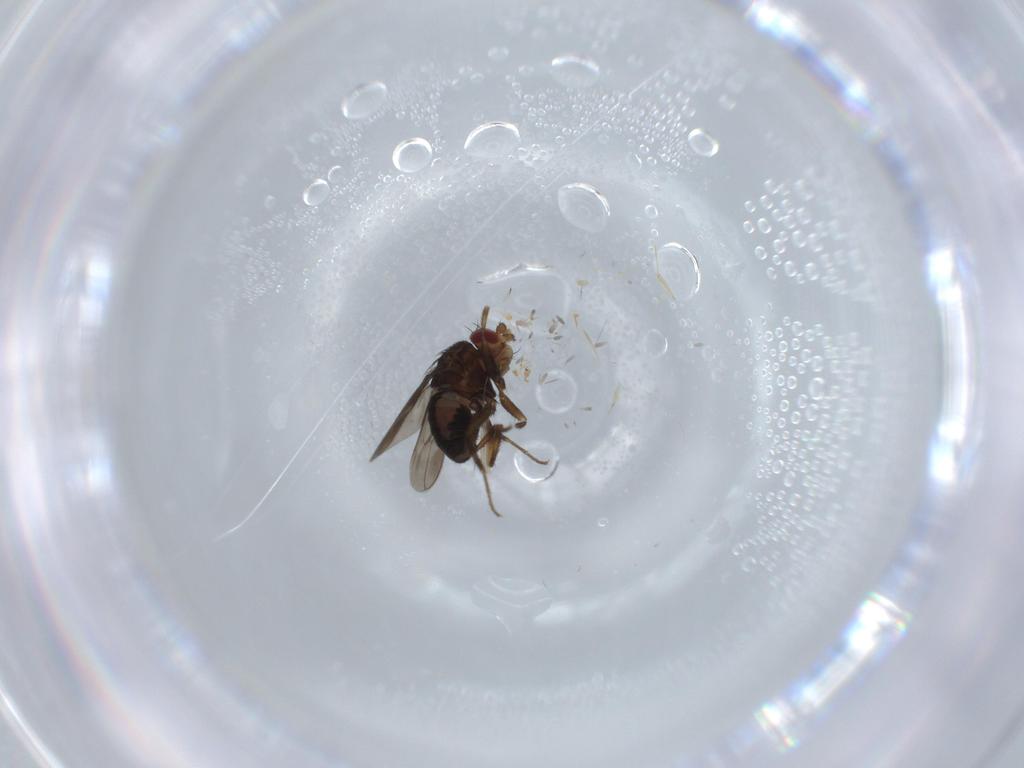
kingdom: Animalia
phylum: Arthropoda
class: Insecta
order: Diptera
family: Sphaeroceridae
